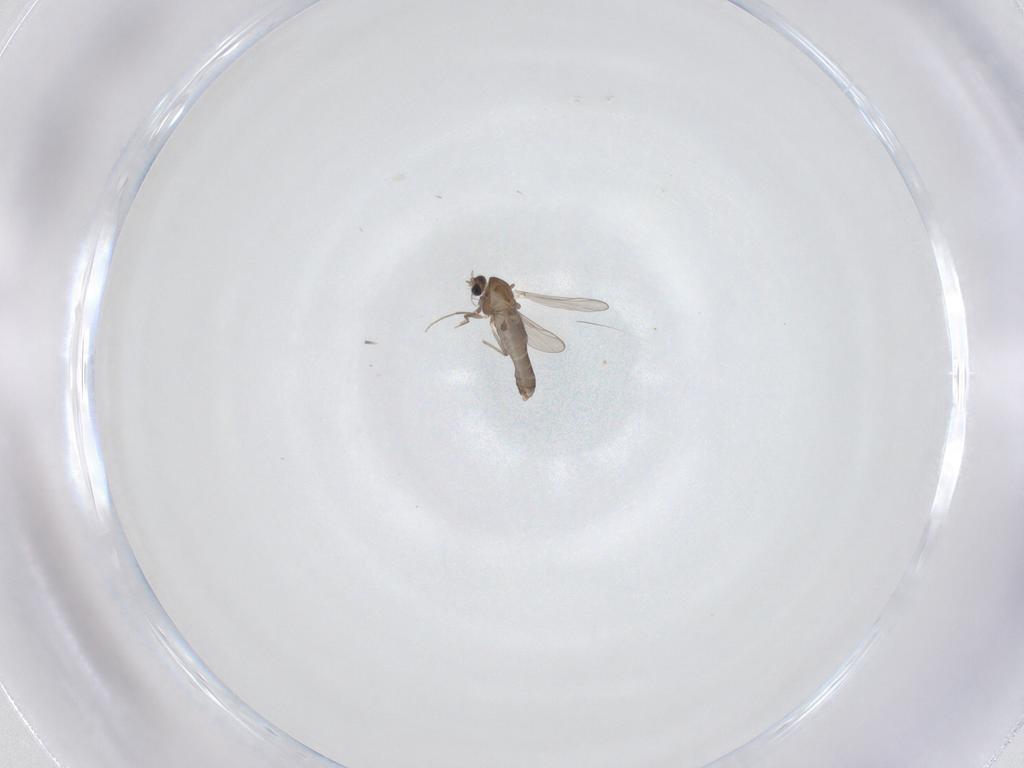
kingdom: Animalia
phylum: Arthropoda
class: Insecta
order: Diptera
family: Chironomidae
